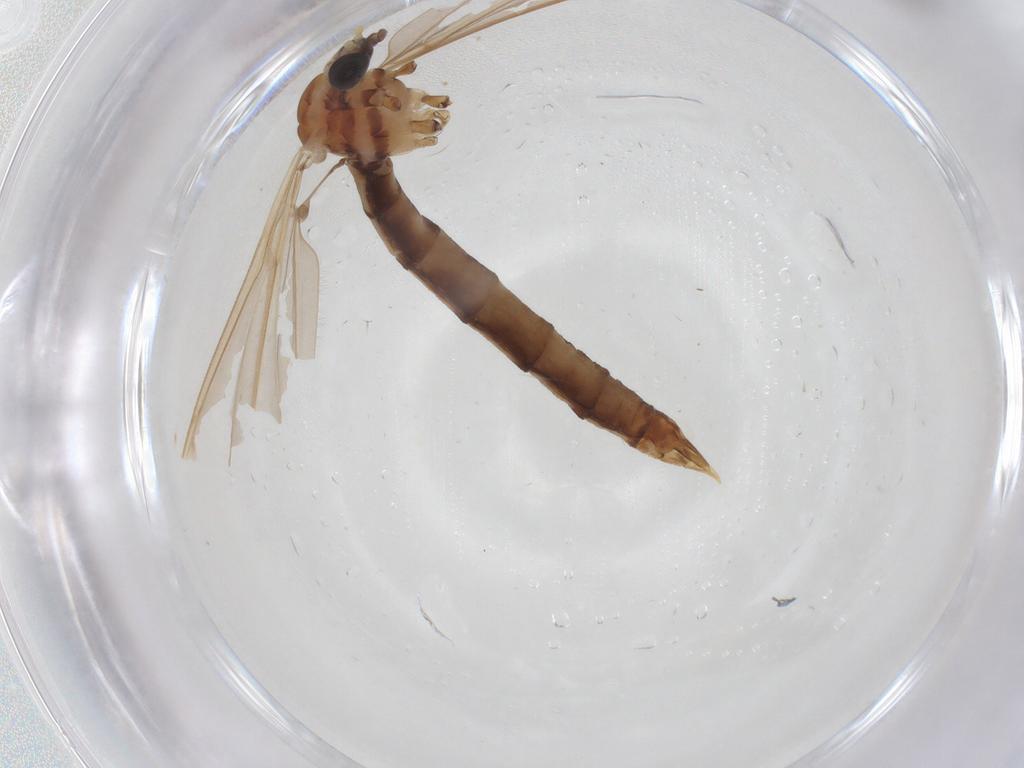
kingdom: Animalia
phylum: Arthropoda
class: Insecta
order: Diptera
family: Limoniidae
